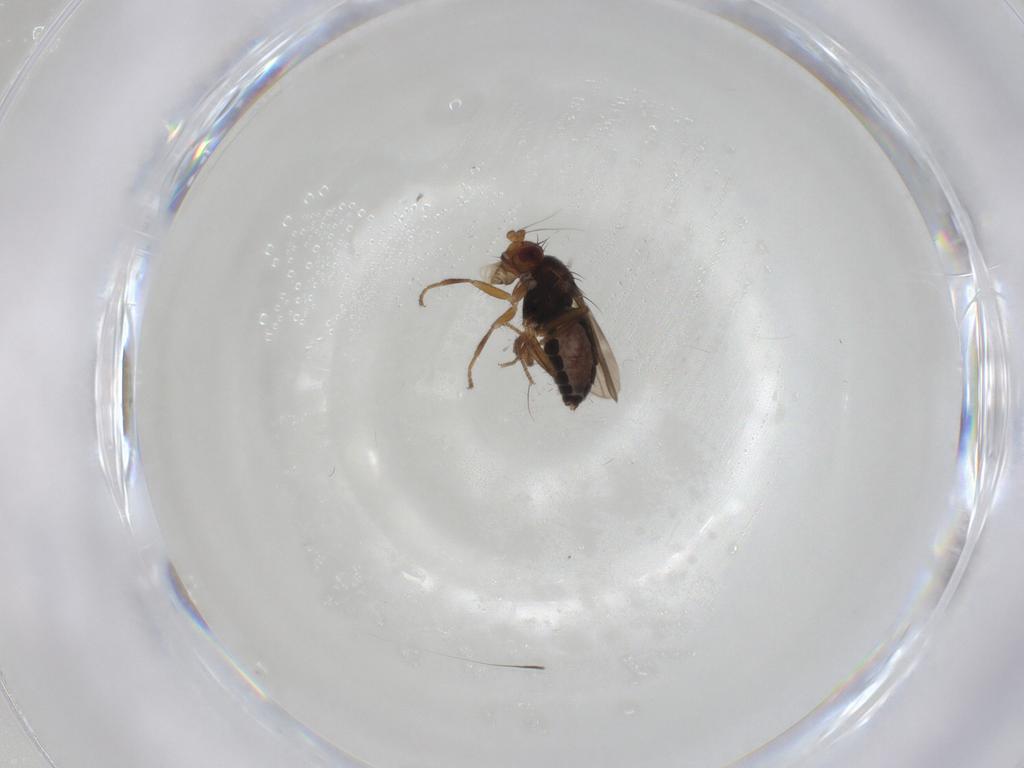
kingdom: Animalia
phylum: Arthropoda
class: Insecta
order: Diptera
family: Sphaeroceridae
